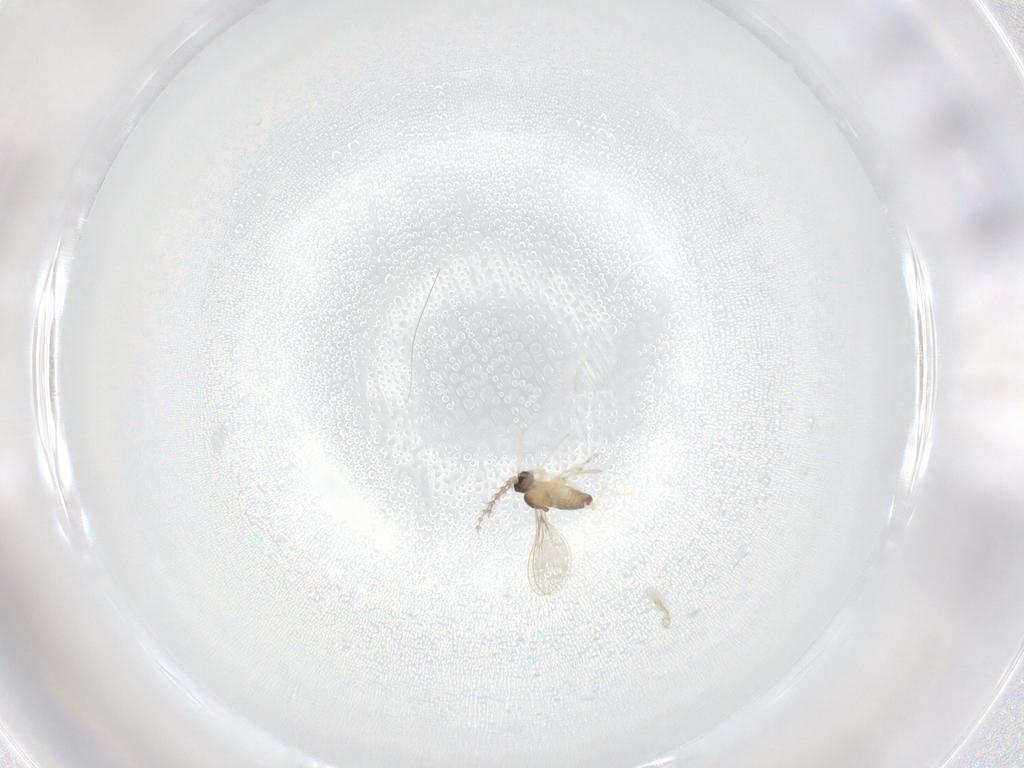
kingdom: Animalia
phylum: Arthropoda
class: Insecta
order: Diptera
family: Cecidomyiidae
